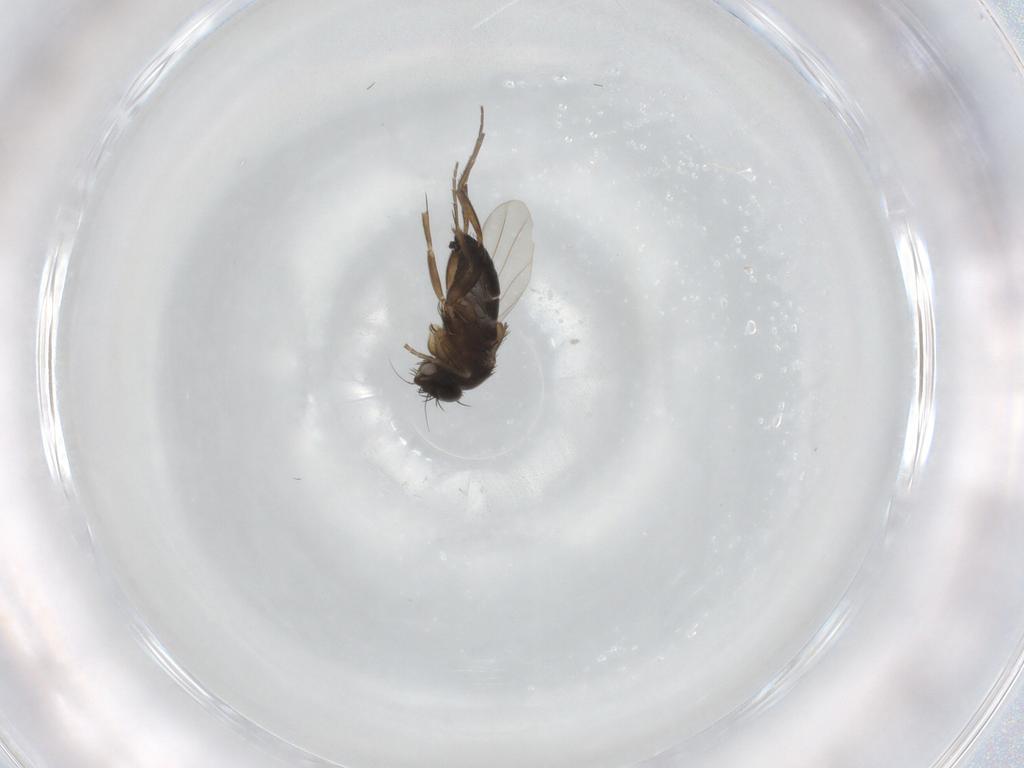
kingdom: Animalia
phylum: Arthropoda
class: Insecta
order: Diptera
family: Phoridae
